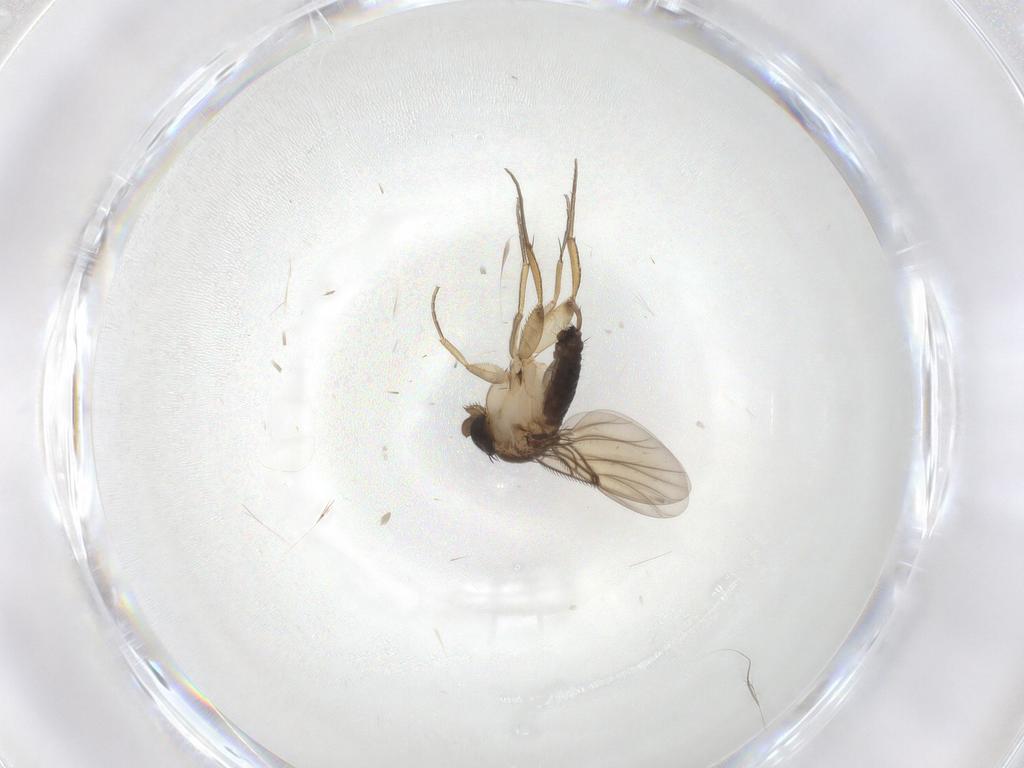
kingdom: Animalia
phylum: Arthropoda
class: Insecta
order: Diptera
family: Phoridae
